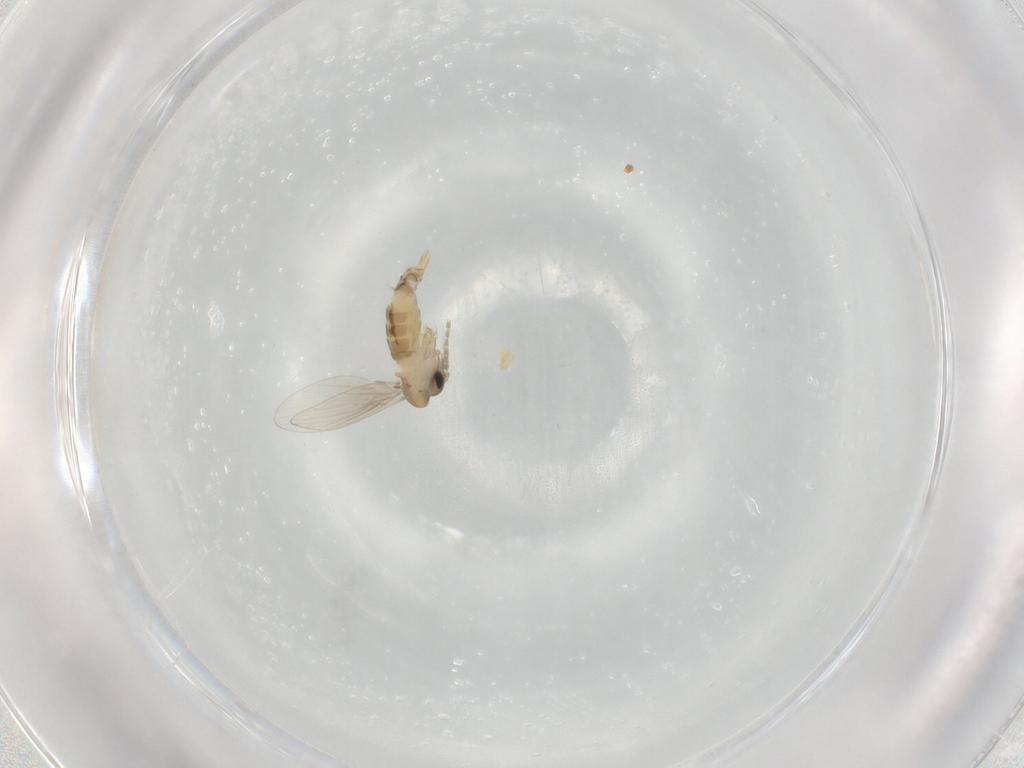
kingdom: Animalia
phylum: Arthropoda
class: Insecta
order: Diptera
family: Psychodidae
